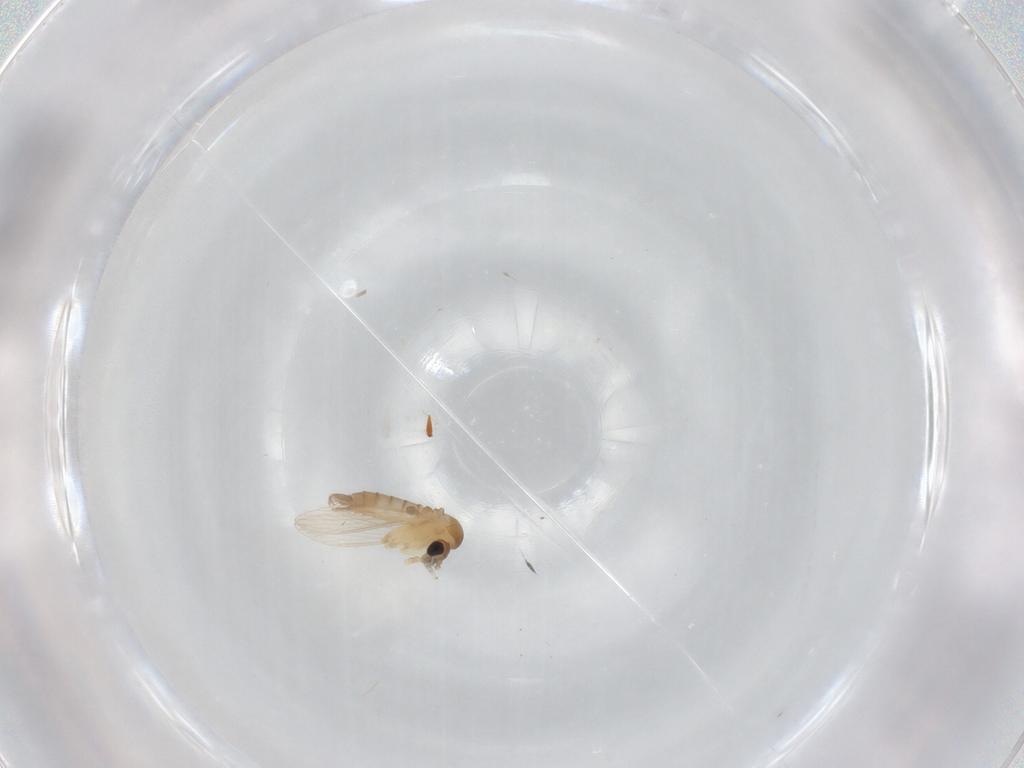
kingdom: Animalia
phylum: Arthropoda
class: Insecta
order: Diptera
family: Psychodidae
